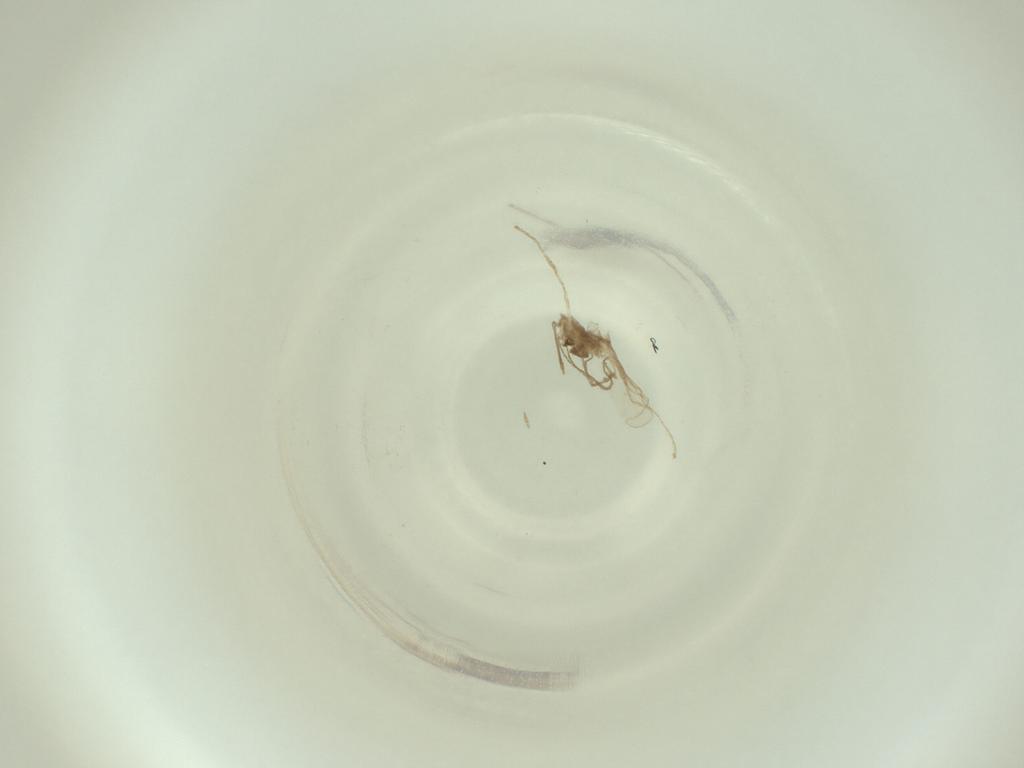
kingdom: Animalia
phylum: Arthropoda
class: Insecta
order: Diptera
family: Cecidomyiidae
